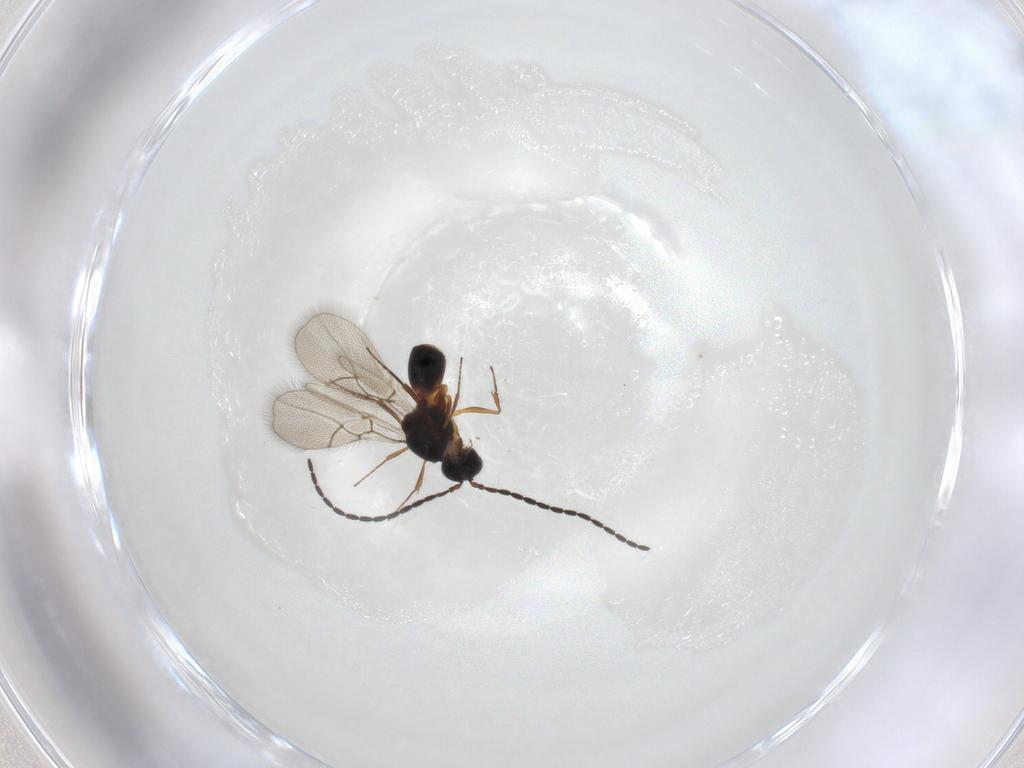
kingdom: Animalia
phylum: Arthropoda
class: Insecta
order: Hymenoptera
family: Figitidae
